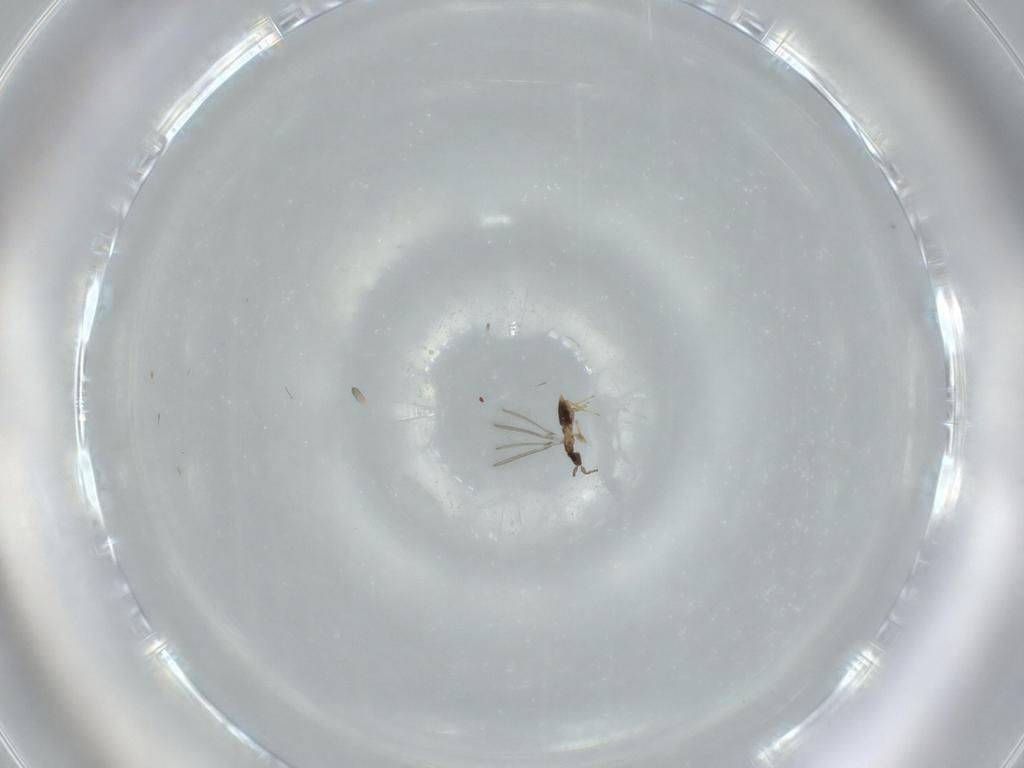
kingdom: Animalia
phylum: Arthropoda
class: Insecta
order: Hymenoptera
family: Mymaridae
